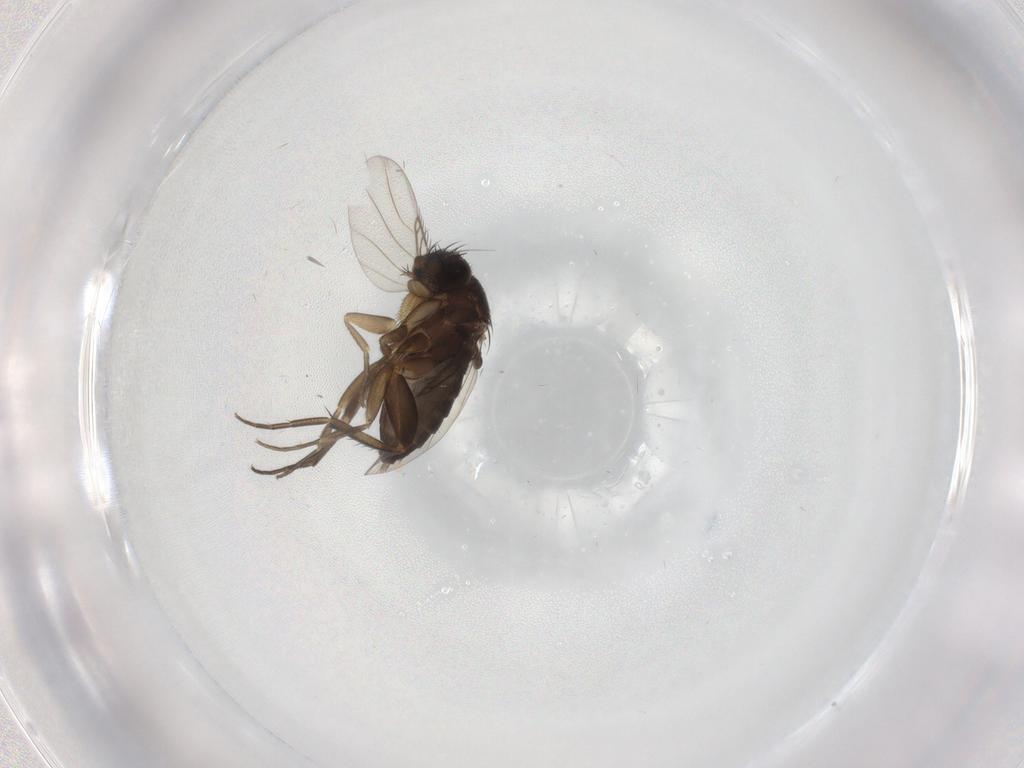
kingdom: Animalia
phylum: Arthropoda
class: Insecta
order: Diptera
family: Phoridae
